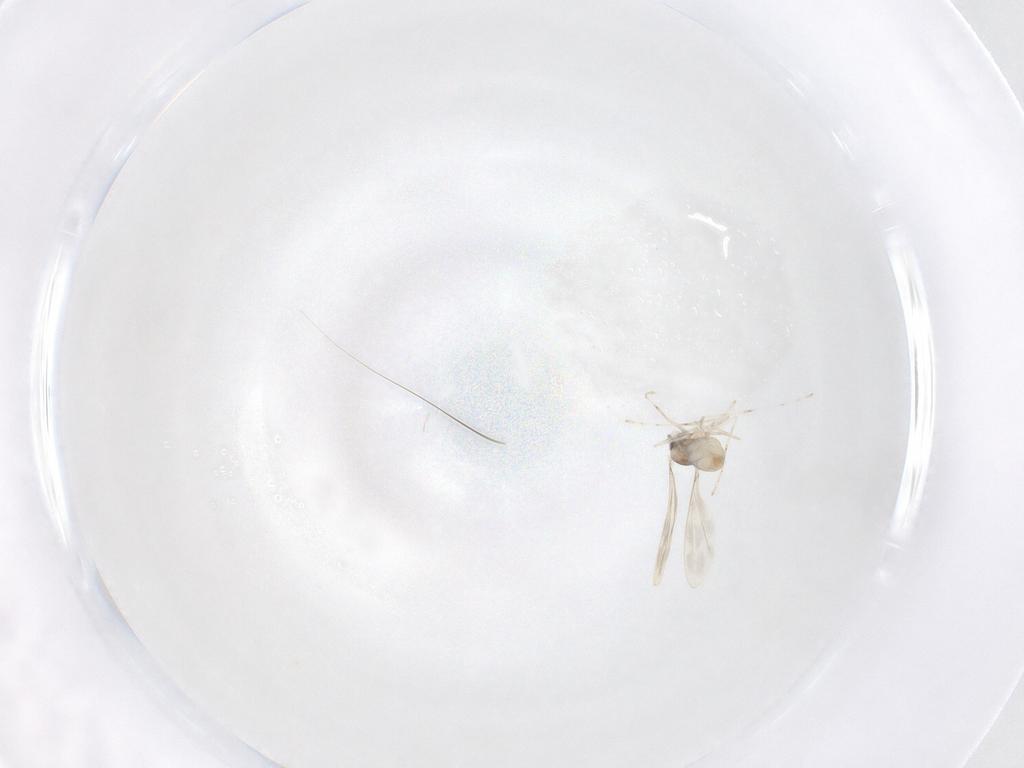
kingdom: Animalia
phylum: Arthropoda
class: Insecta
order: Diptera
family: Cecidomyiidae
